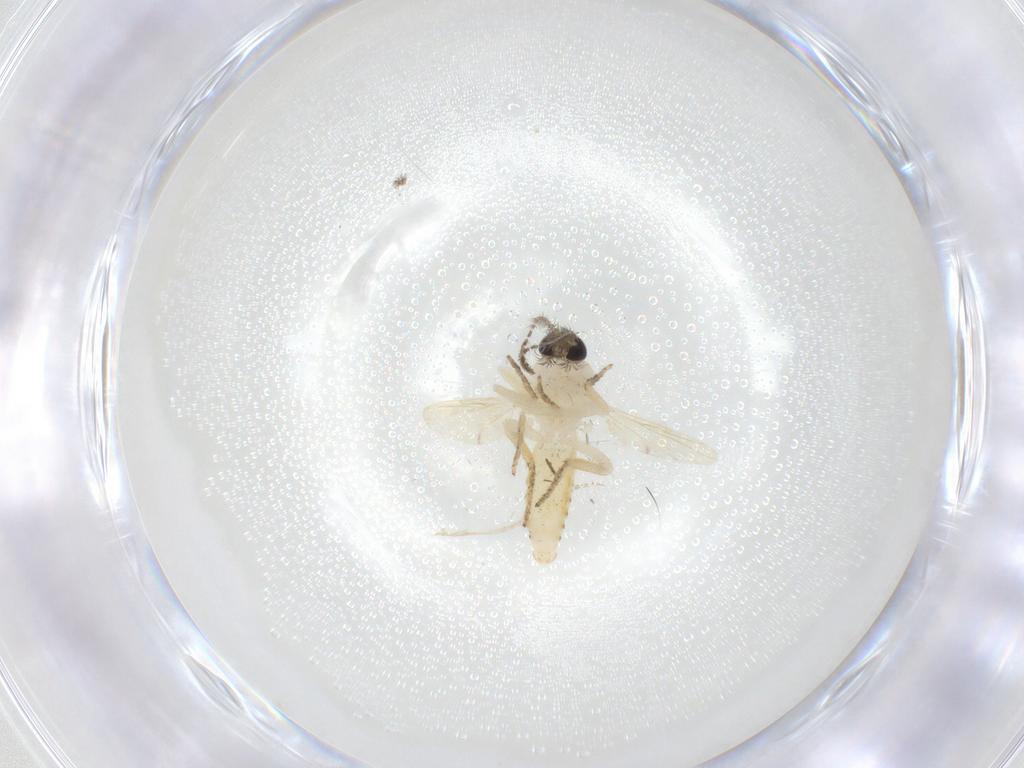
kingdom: Animalia
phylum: Arthropoda
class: Insecta
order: Diptera
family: Ceratopogonidae
